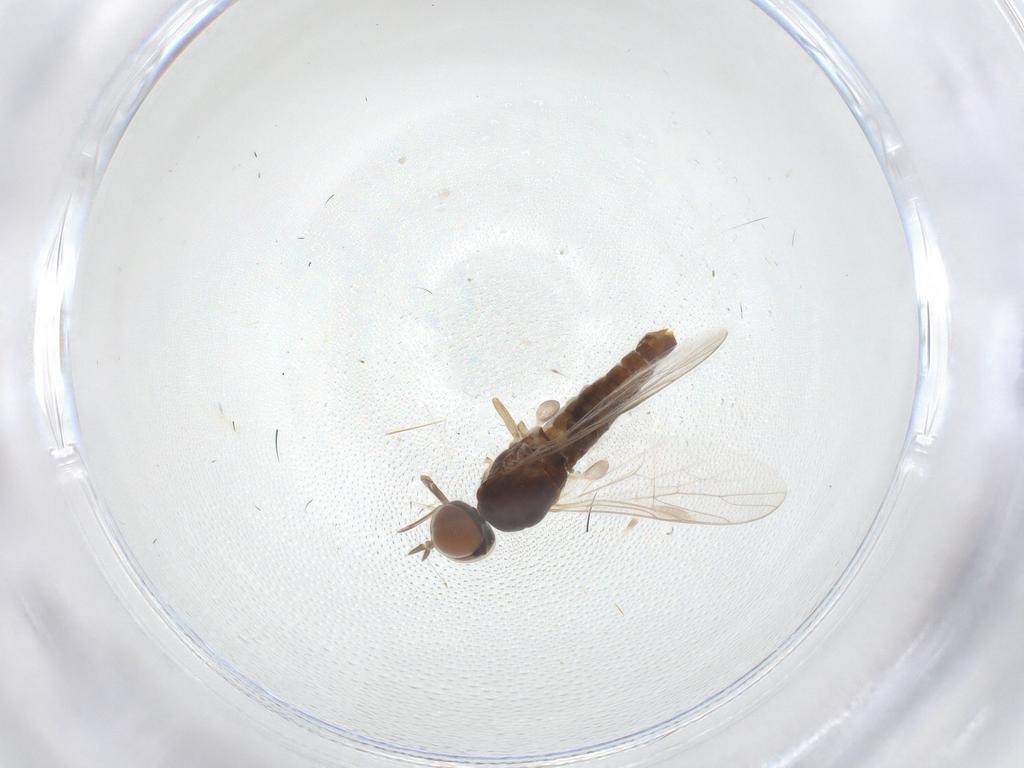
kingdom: Animalia
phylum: Arthropoda
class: Insecta
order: Diptera
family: Scenopinidae
